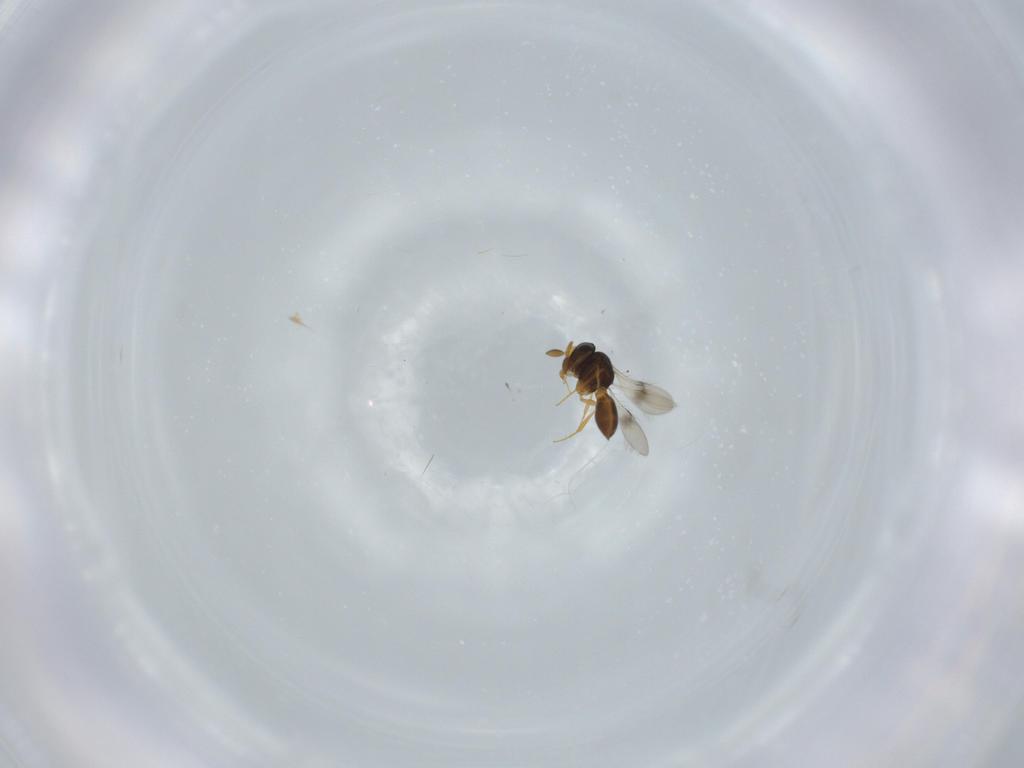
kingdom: Animalia
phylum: Arthropoda
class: Insecta
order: Hymenoptera
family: Scelionidae
